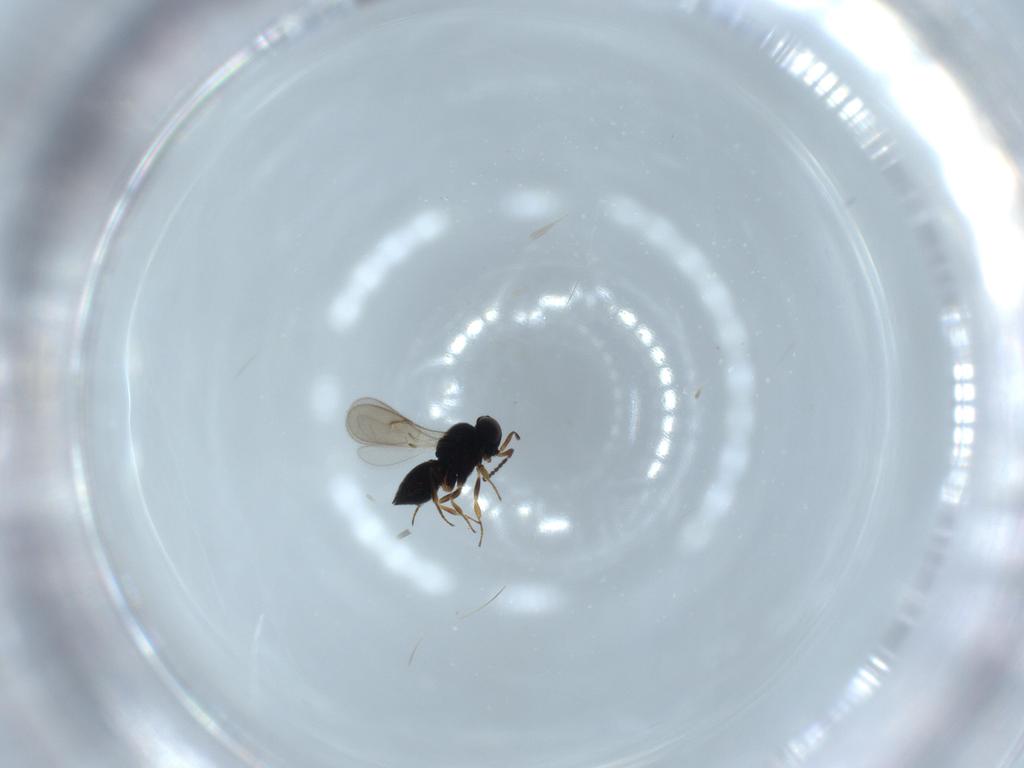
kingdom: Animalia
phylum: Arthropoda
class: Insecta
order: Hymenoptera
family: Scelionidae
